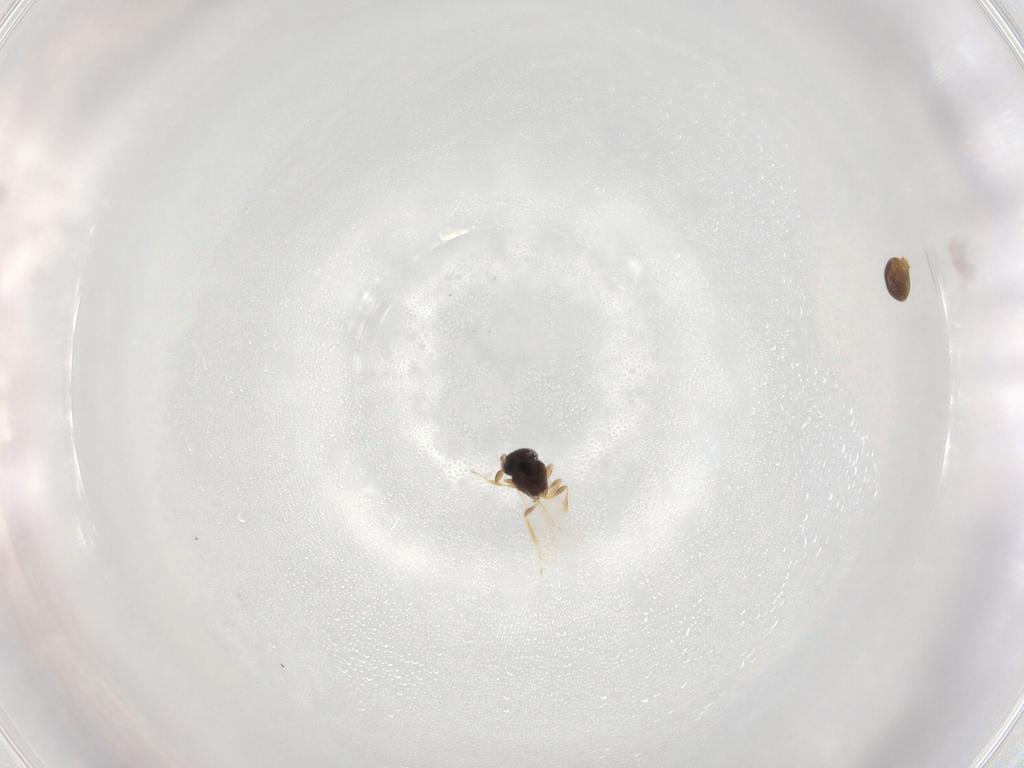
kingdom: Animalia
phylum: Arthropoda
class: Insecta
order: Hymenoptera
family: Scelionidae
